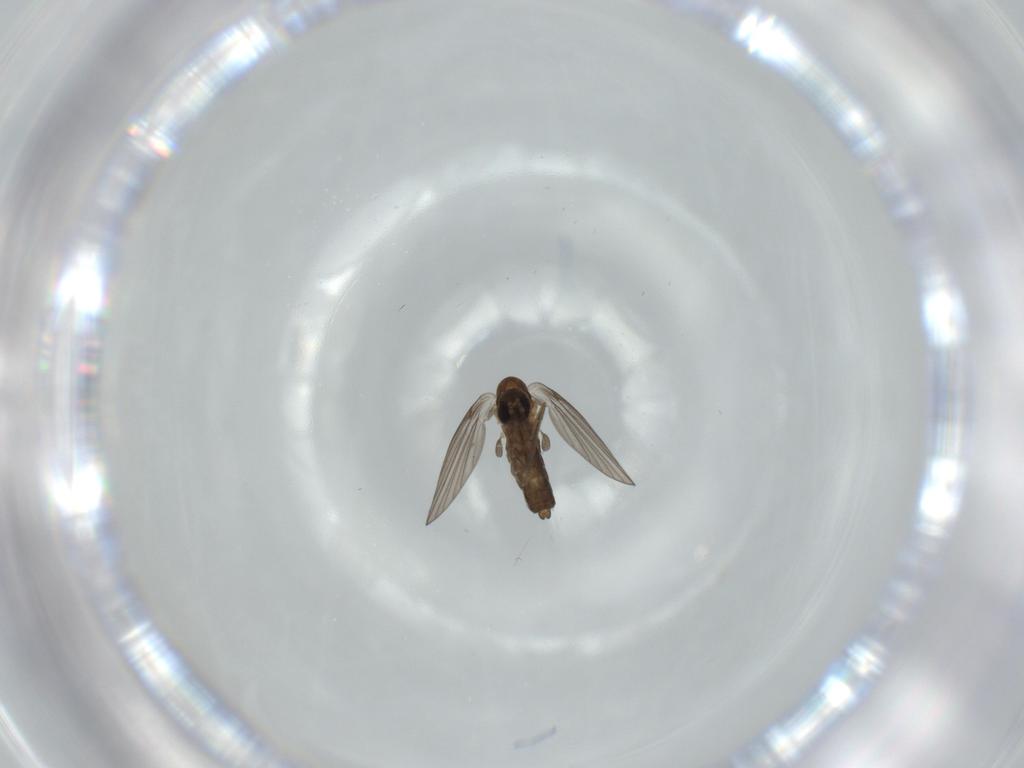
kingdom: Animalia
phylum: Arthropoda
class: Insecta
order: Diptera
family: Psychodidae
